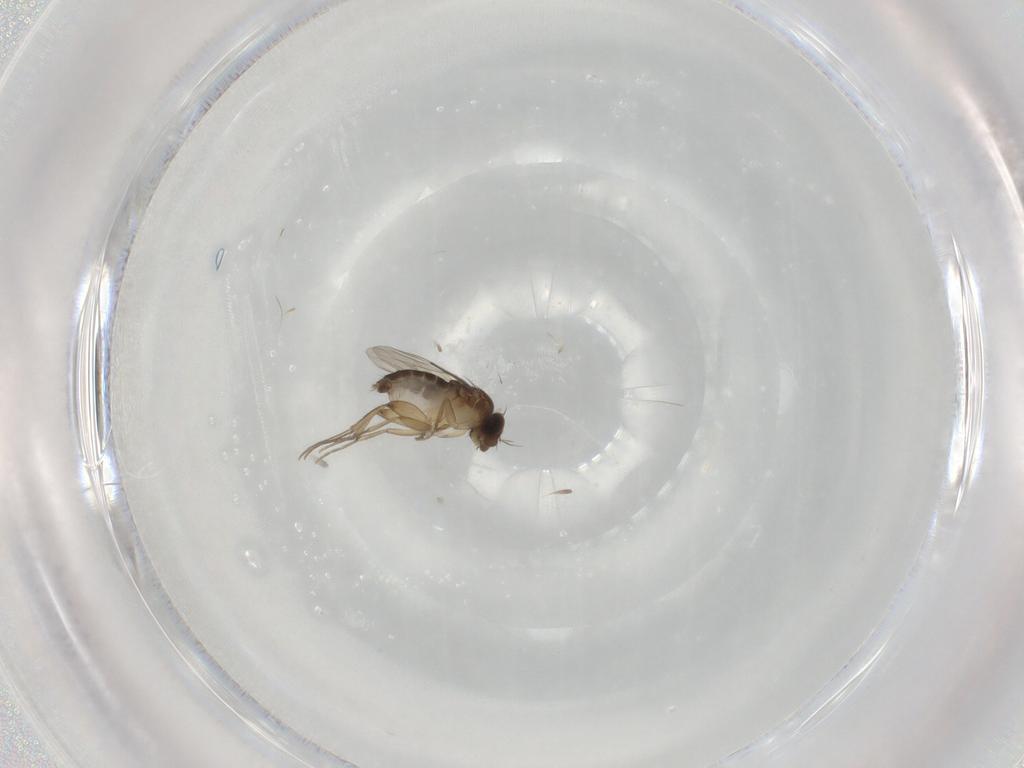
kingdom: Animalia
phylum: Arthropoda
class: Insecta
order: Diptera
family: Phoridae
